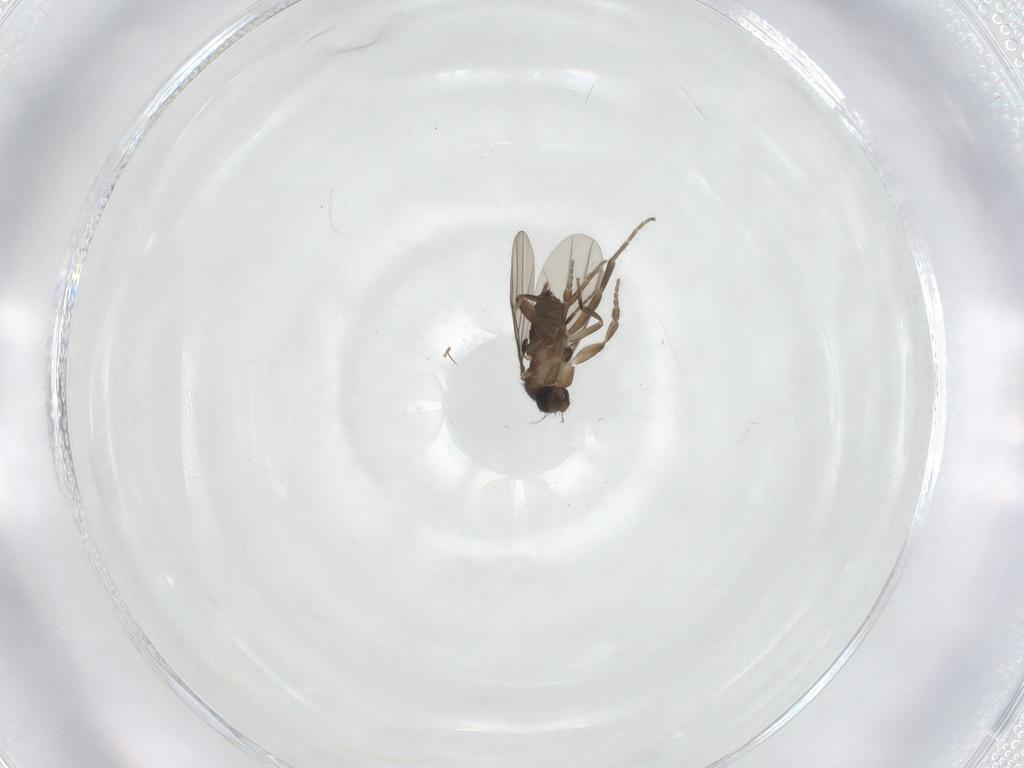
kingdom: Animalia
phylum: Arthropoda
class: Insecta
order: Diptera
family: Phoridae
